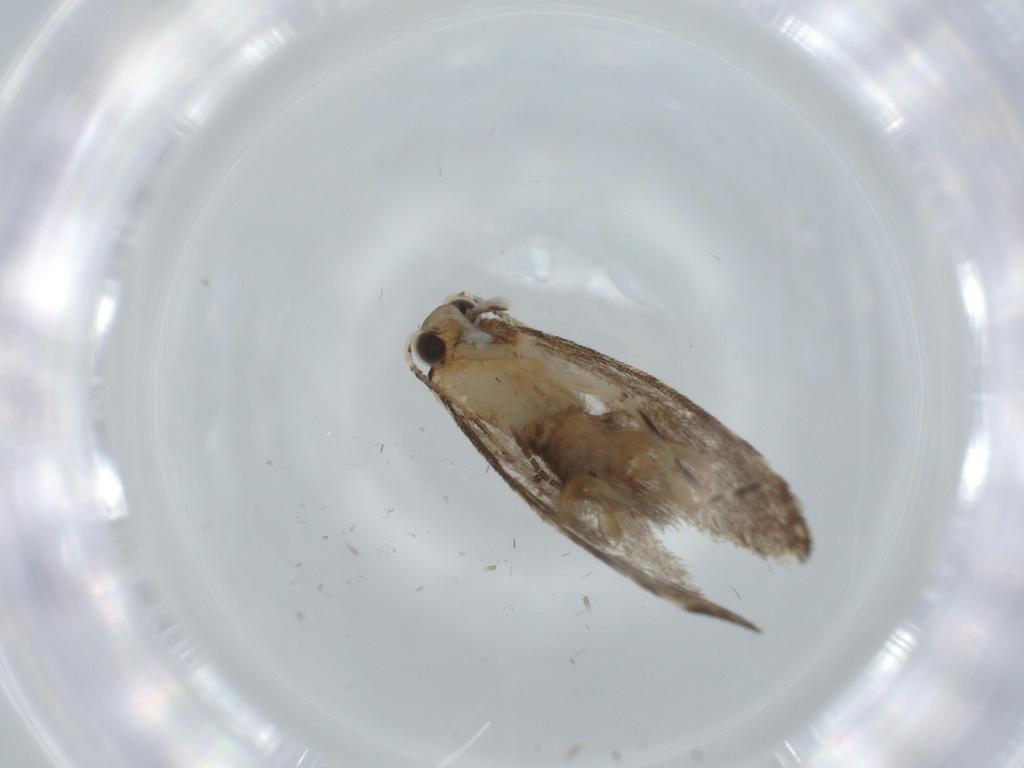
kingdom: Animalia
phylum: Arthropoda
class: Insecta
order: Lepidoptera
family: Tineidae
